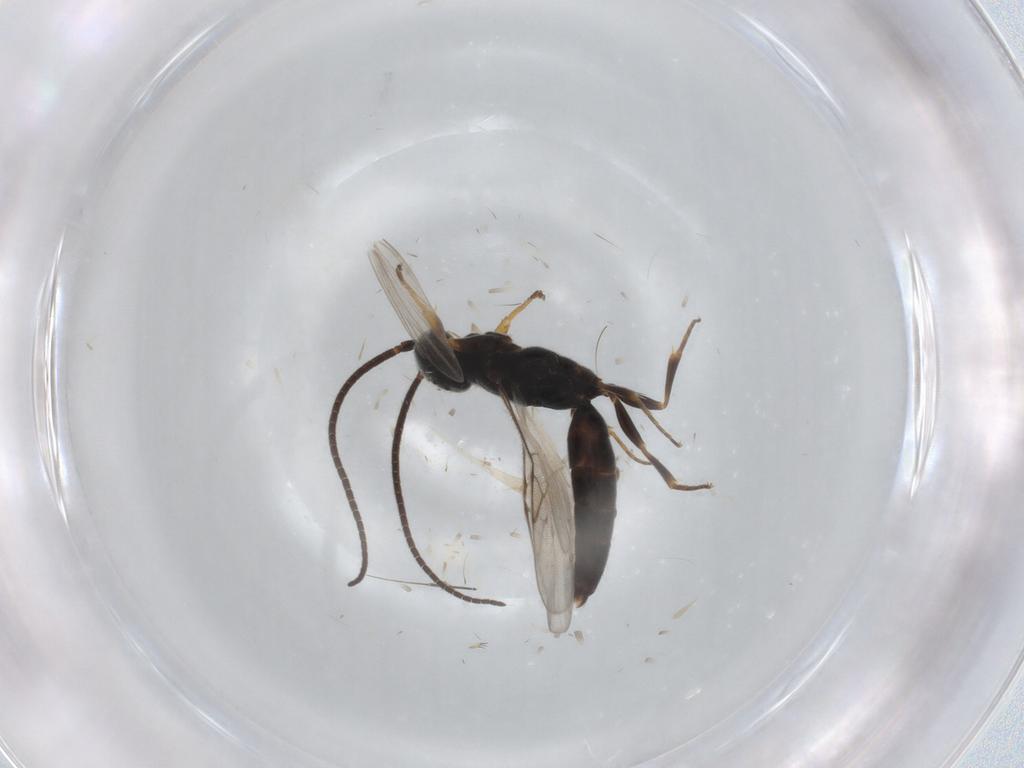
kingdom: Animalia
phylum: Arthropoda
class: Insecta
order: Hymenoptera
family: Sclerogibbidae
